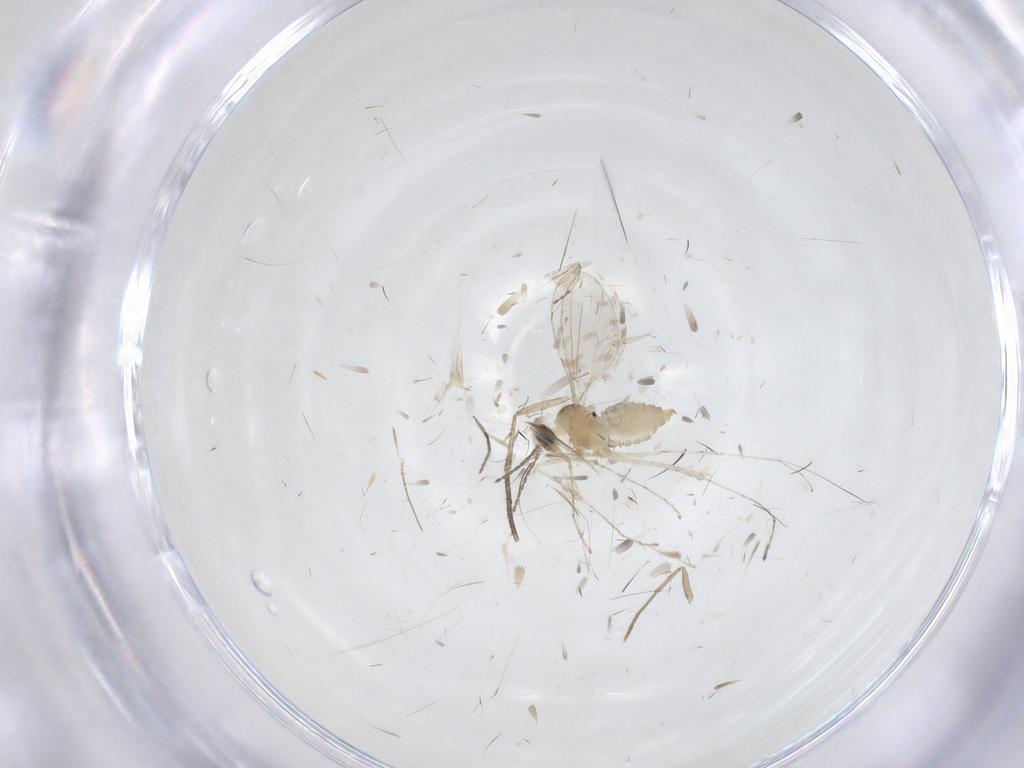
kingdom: Animalia
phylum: Arthropoda
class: Insecta
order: Diptera
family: Cecidomyiidae
